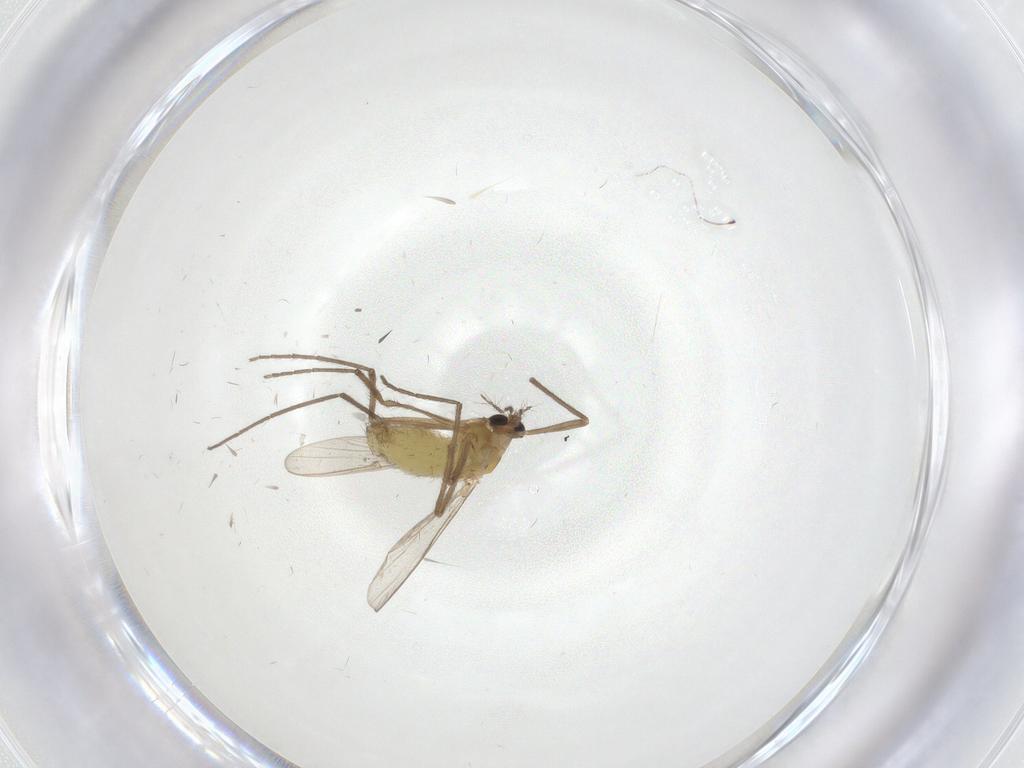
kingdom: Animalia
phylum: Arthropoda
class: Insecta
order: Diptera
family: Chironomidae
